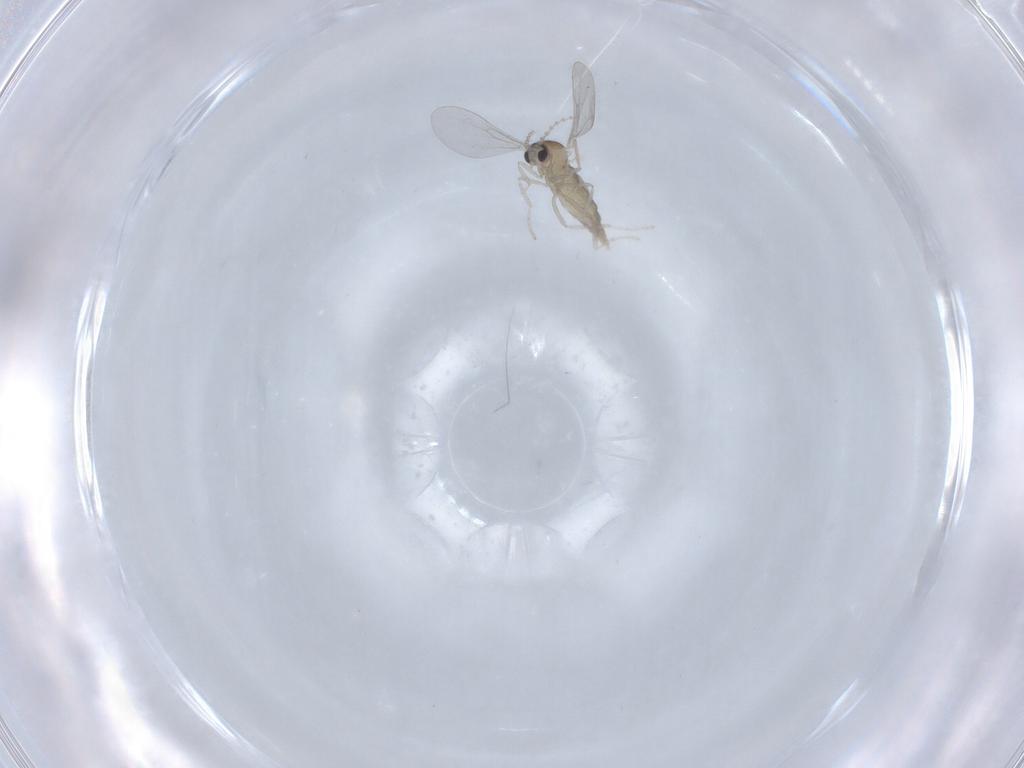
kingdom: Animalia
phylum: Arthropoda
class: Insecta
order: Diptera
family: Cecidomyiidae
